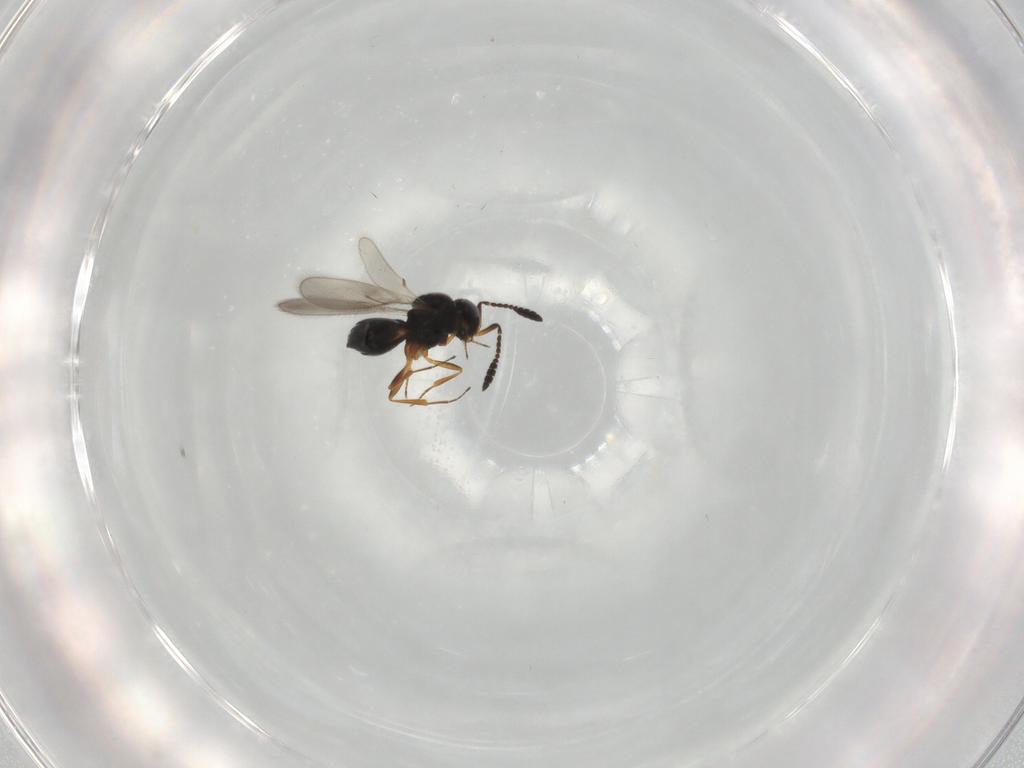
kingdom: Animalia
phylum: Arthropoda
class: Insecta
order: Hymenoptera
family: Scelionidae
